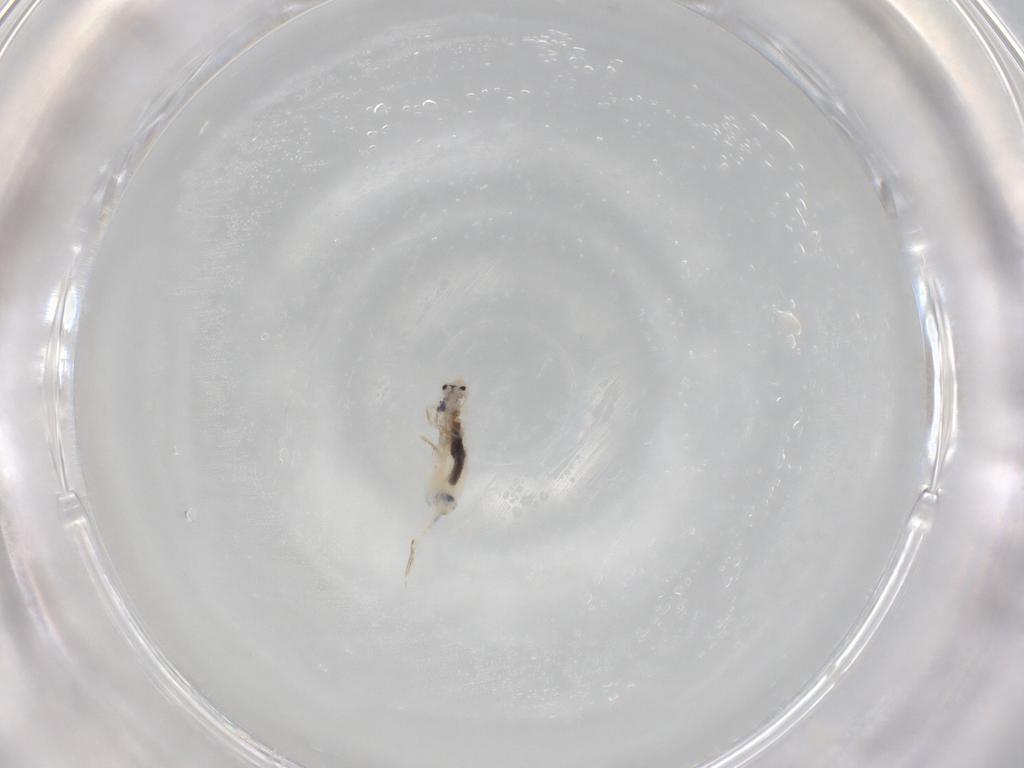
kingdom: Animalia
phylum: Arthropoda
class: Collembola
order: Entomobryomorpha
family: Entomobryidae
